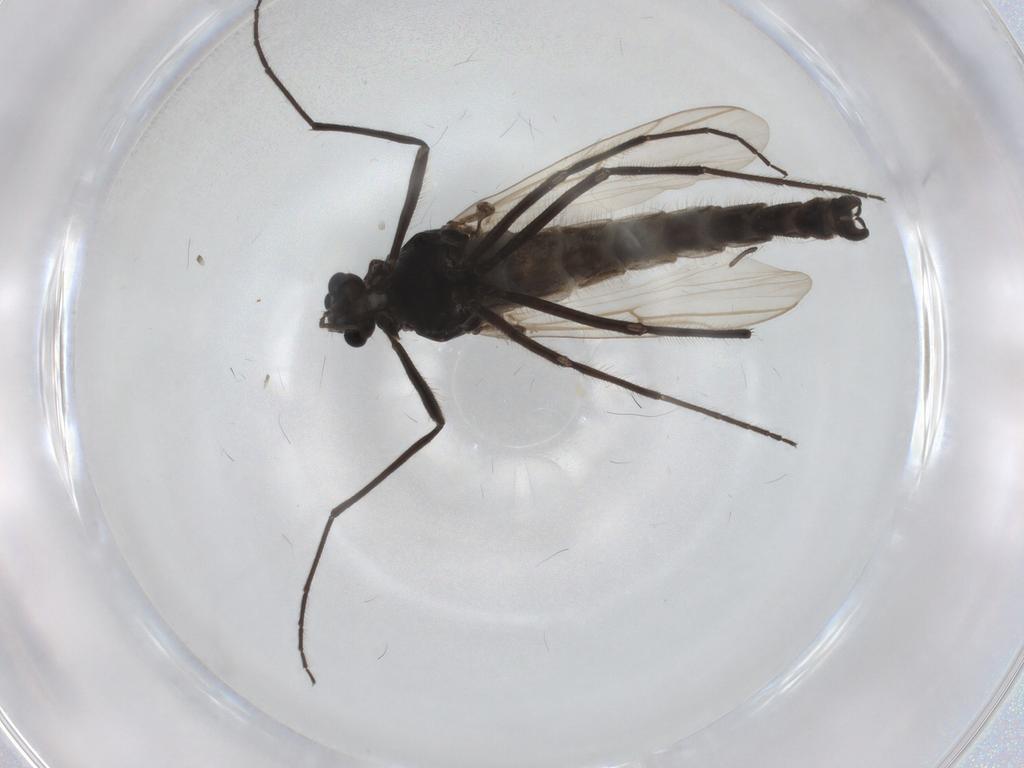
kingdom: Animalia
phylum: Arthropoda
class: Insecta
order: Diptera
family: Chironomidae
